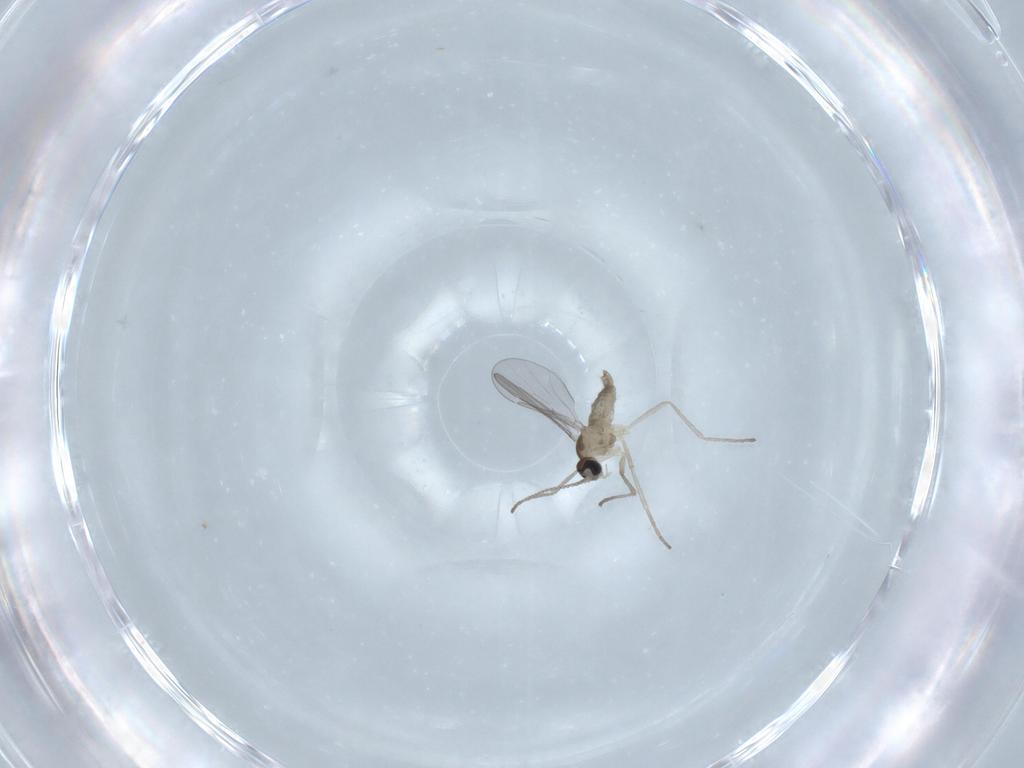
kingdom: Animalia
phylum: Arthropoda
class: Insecta
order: Diptera
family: Cecidomyiidae
